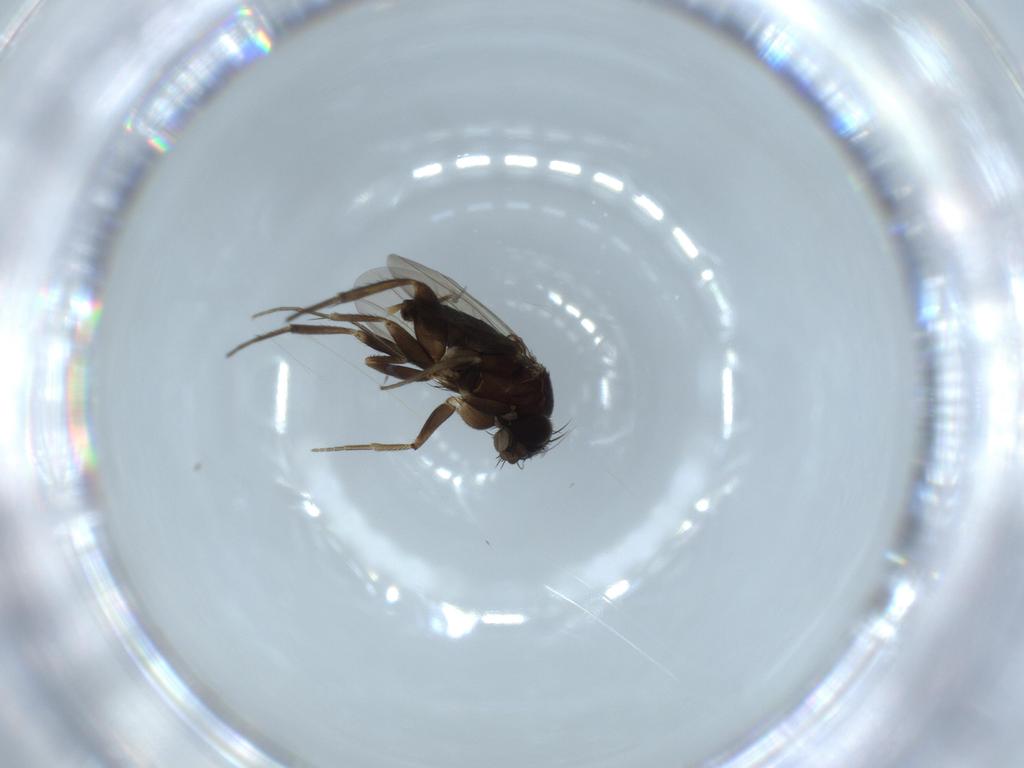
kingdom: Animalia
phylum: Arthropoda
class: Insecta
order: Diptera
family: Phoridae
